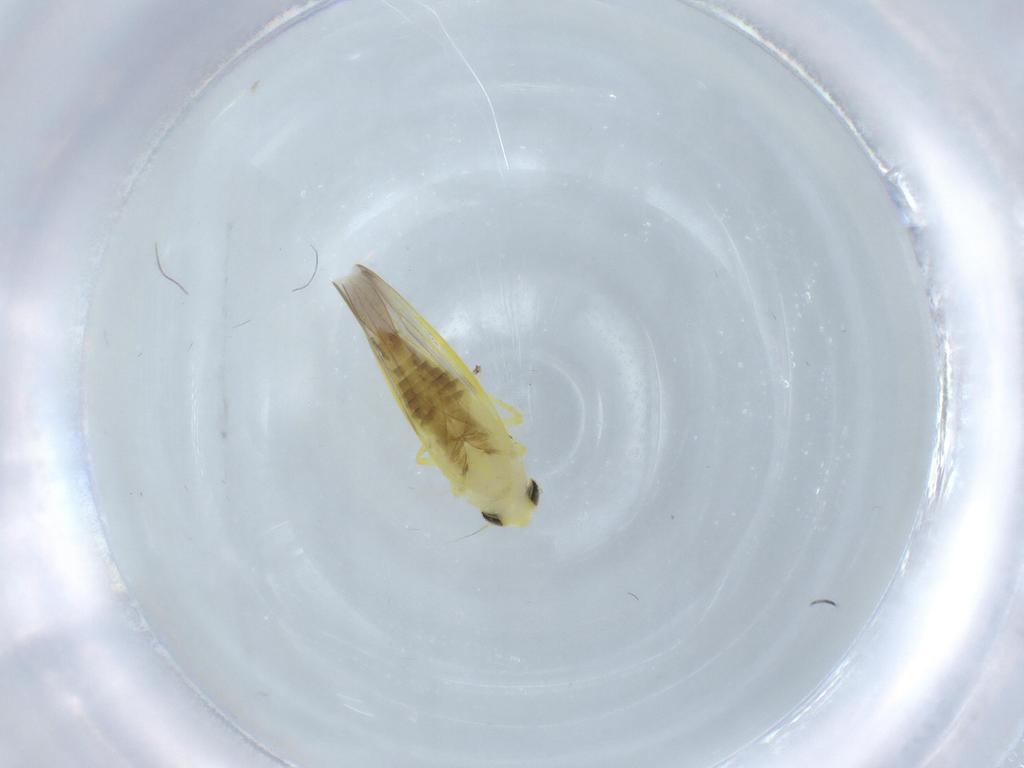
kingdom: Animalia
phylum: Arthropoda
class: Insecta
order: Hemiptera
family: Cicadellidae
